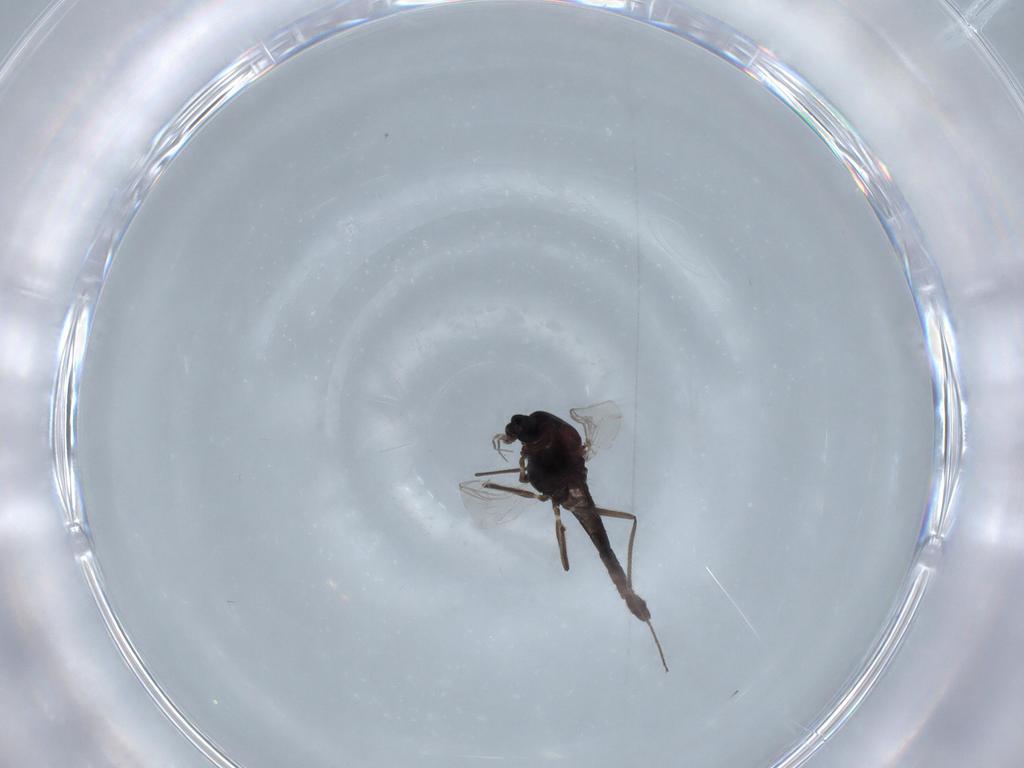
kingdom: Animalia
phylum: Arthropoda
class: Insecta
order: Diptera
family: Chironomidae
